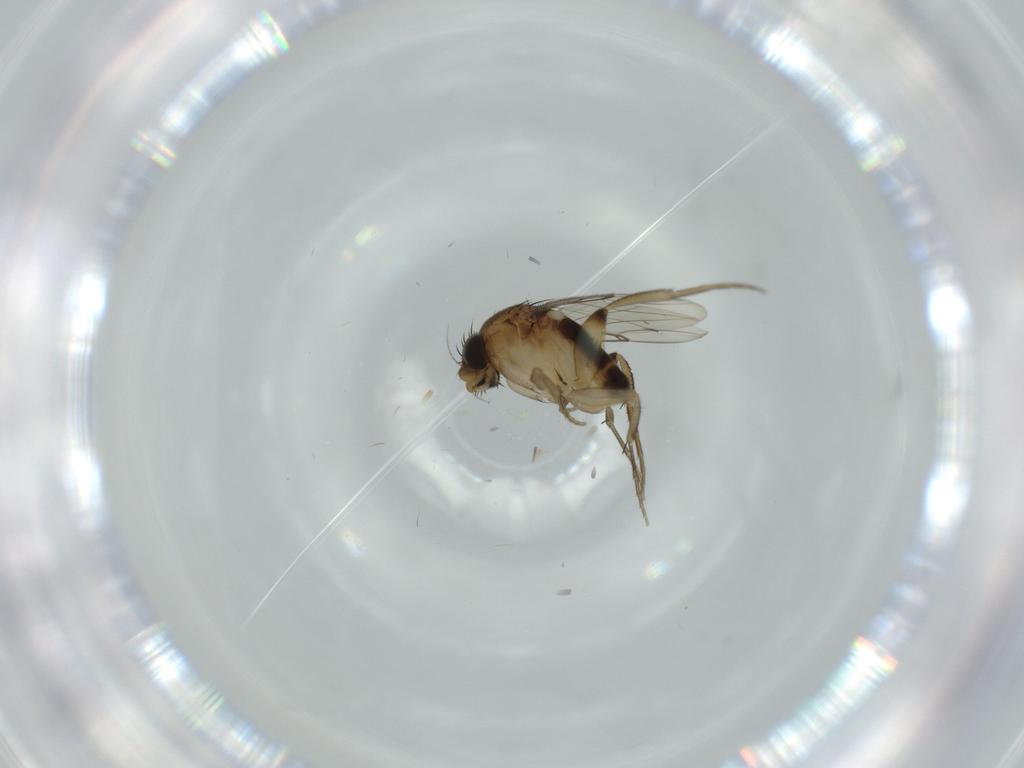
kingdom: Animalia
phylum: Arthropoda
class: Insecta
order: Diptera
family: Phoridae
